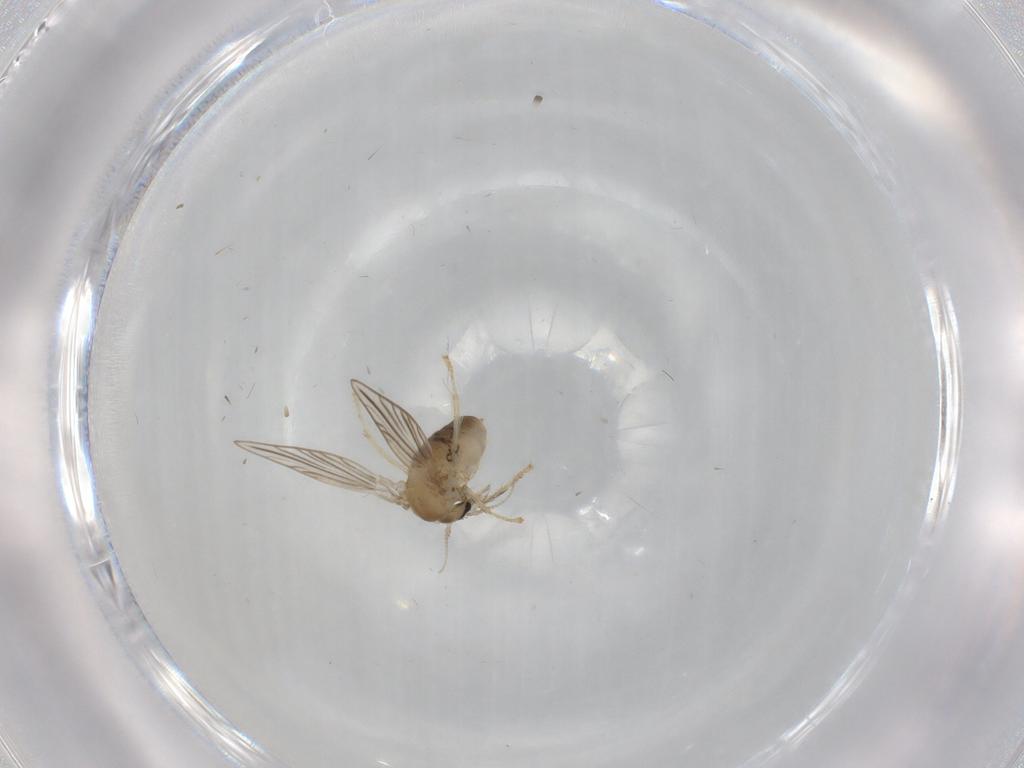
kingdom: Animalia
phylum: Arthropoda
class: Insecta
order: Diptera
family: Psychodidae
